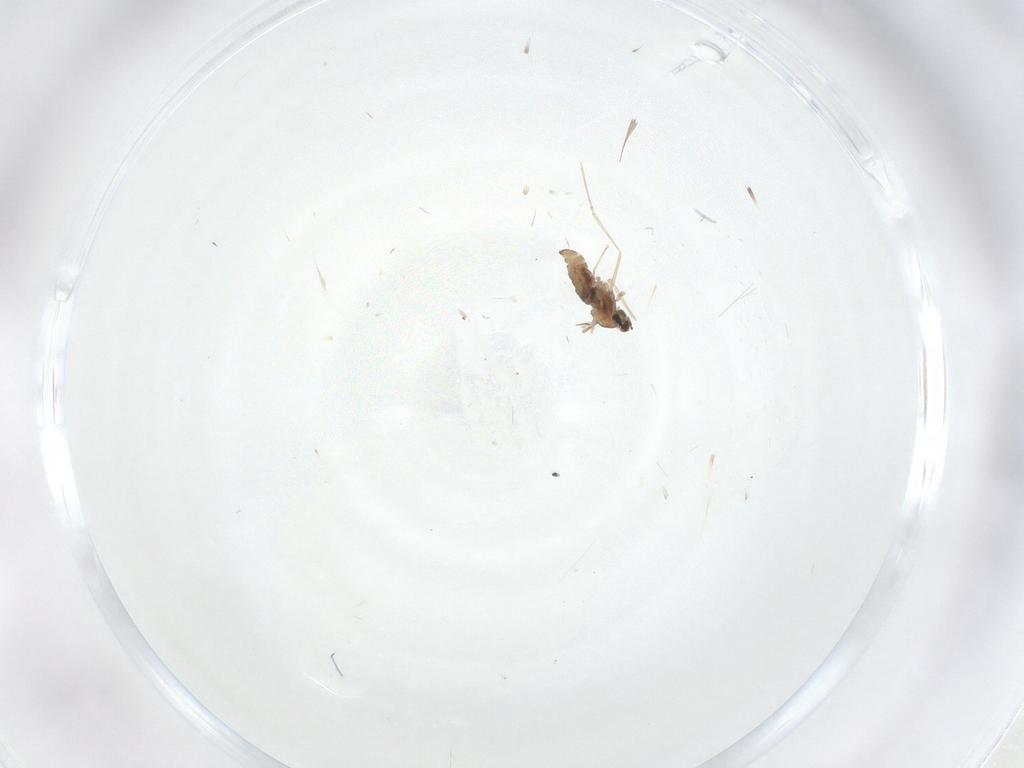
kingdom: Animalia
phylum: Arthropoda
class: Insecta
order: Diptera
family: Cecidomyiidae
